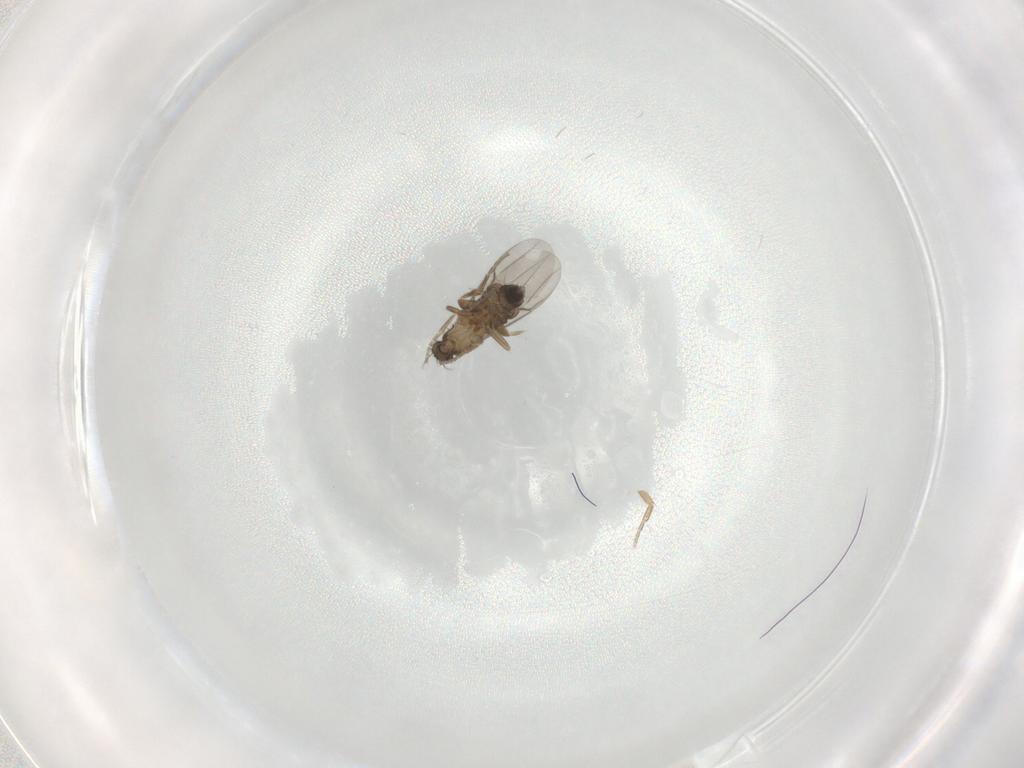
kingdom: Animalia
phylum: Arthropoda
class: Insecta
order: Diptera
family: Phoridae
